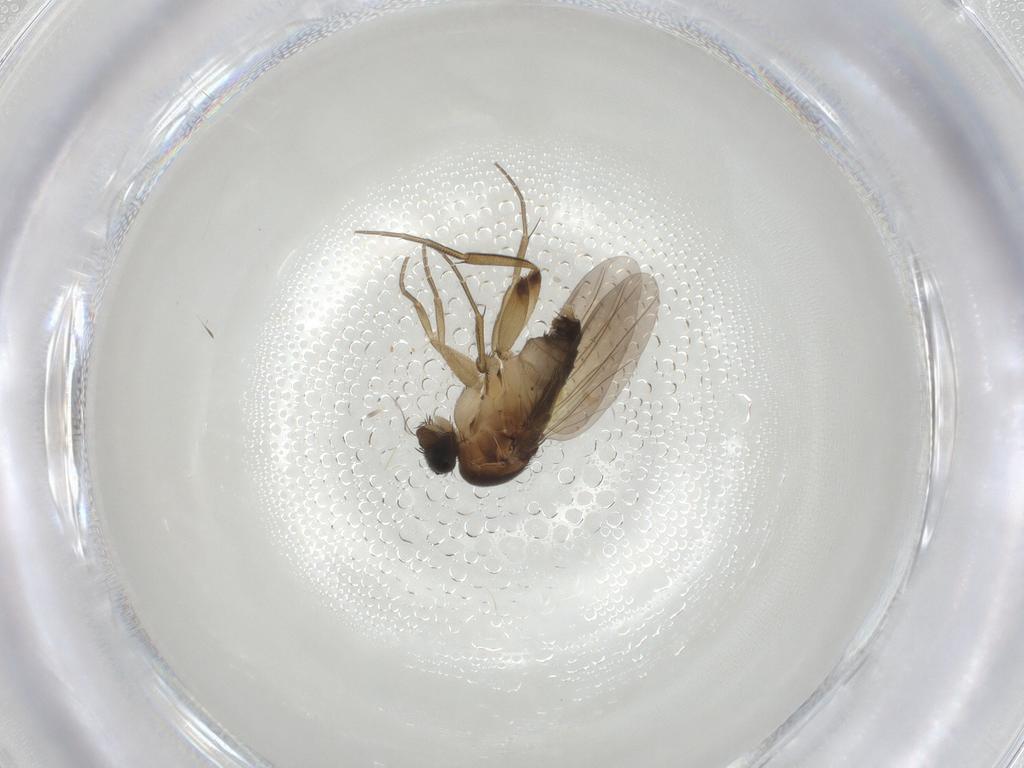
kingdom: Animalia
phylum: Arthropoda
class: Insecta
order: Diptera
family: Phoridae
